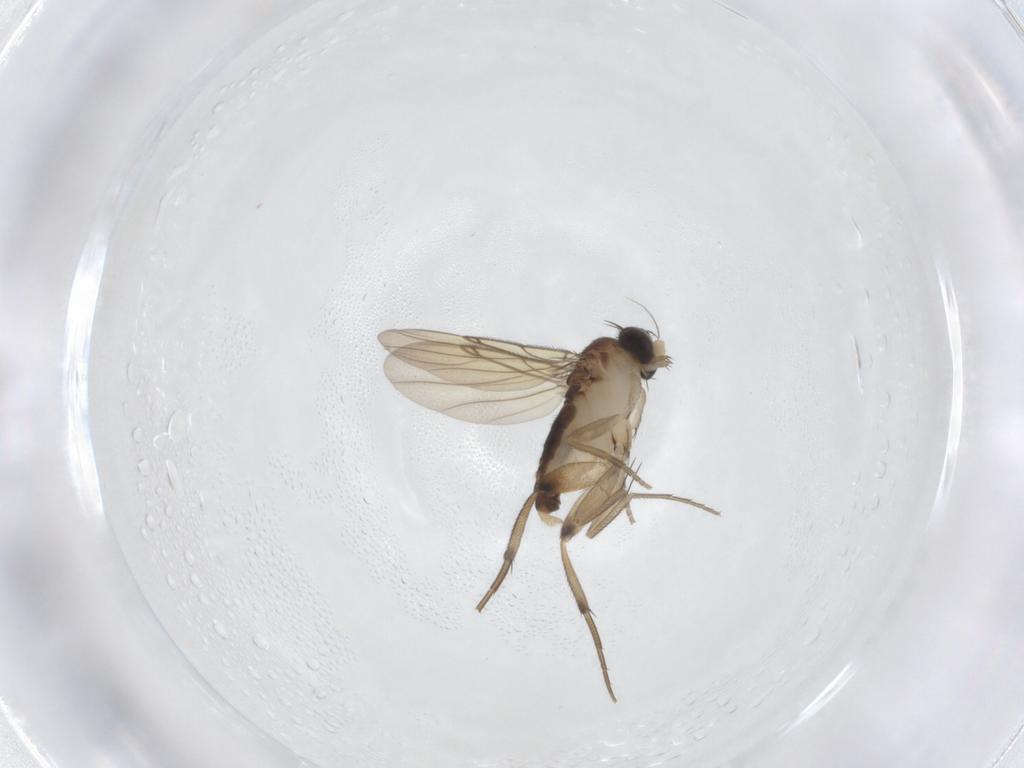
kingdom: Animalia
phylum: Arthropoda
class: Insecta
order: Diptera
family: Phoridae
